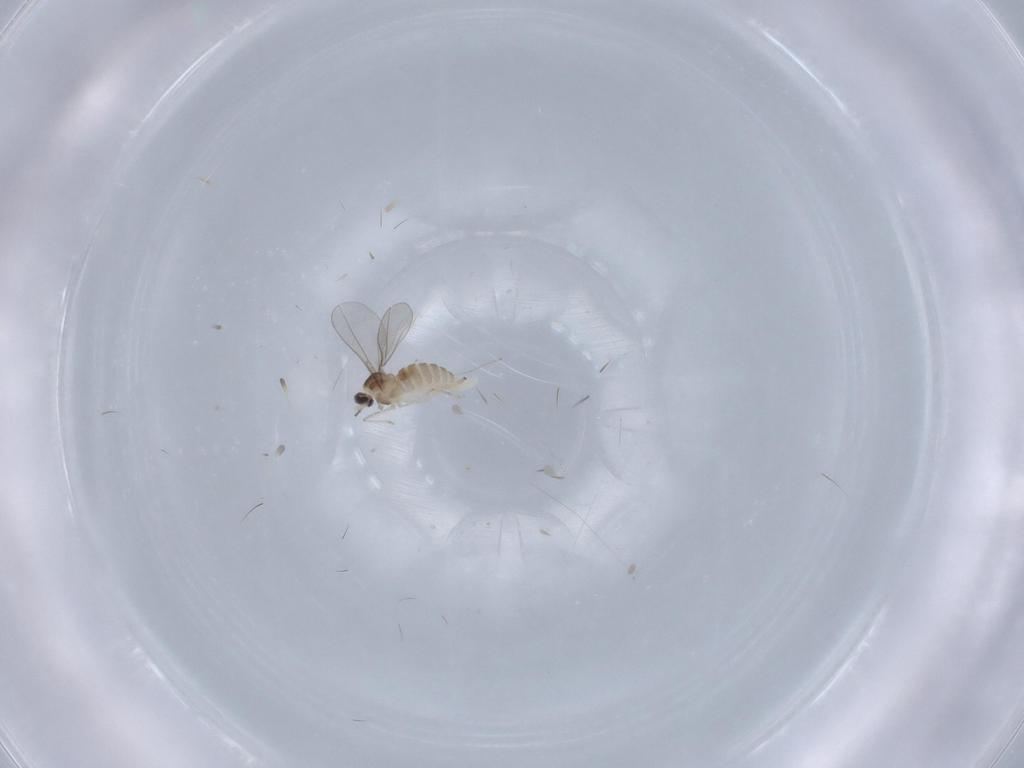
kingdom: Animalia
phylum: Arthropoda
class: Insecta
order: Diptera
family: Cecidomyiidae
